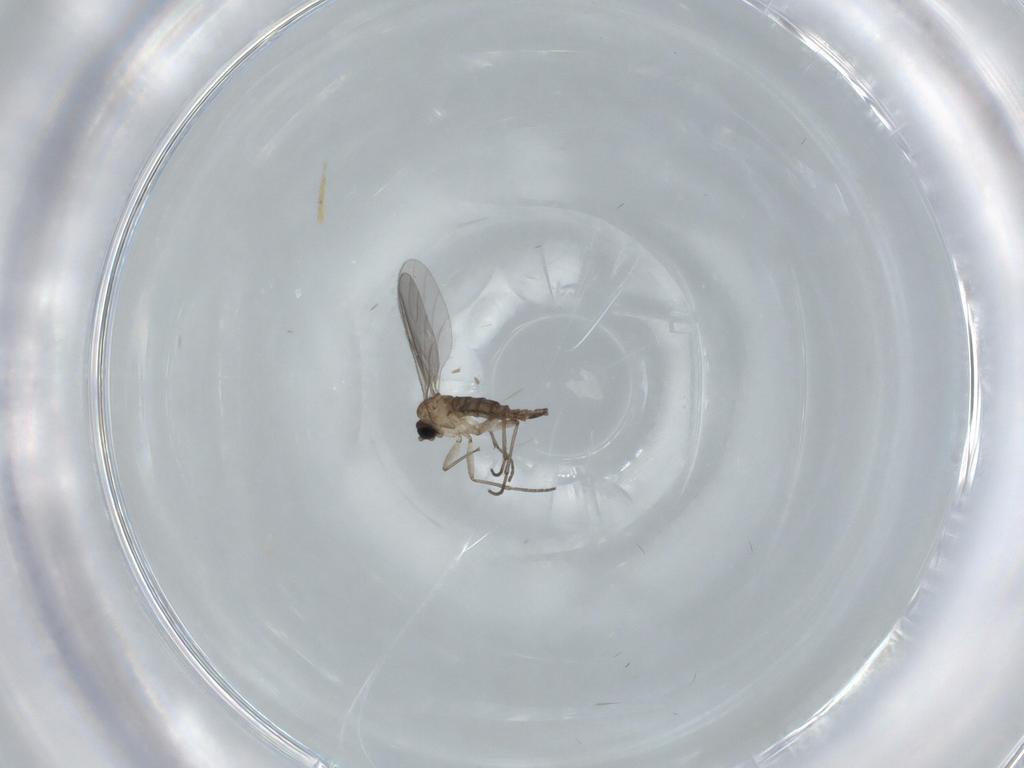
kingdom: Animalia
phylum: Arthropoda
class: Insecta
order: Diptera
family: Sciaridae
